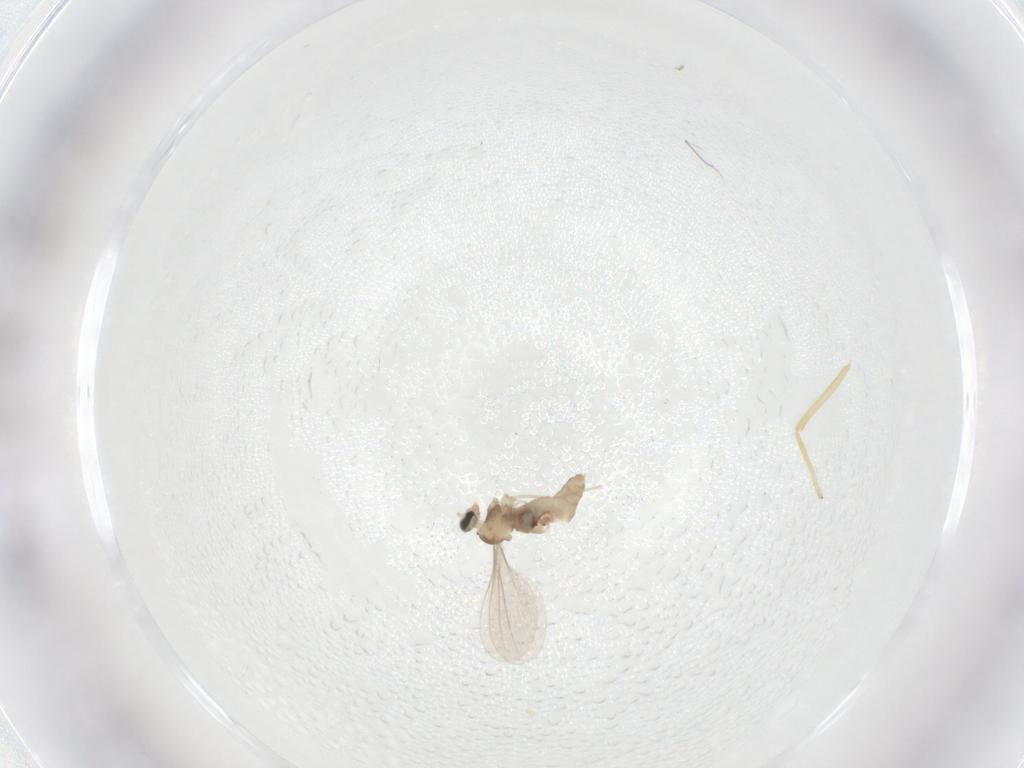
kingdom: Animalia
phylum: Arthropoda
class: Insecta
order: Diptera
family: Chironomidae
